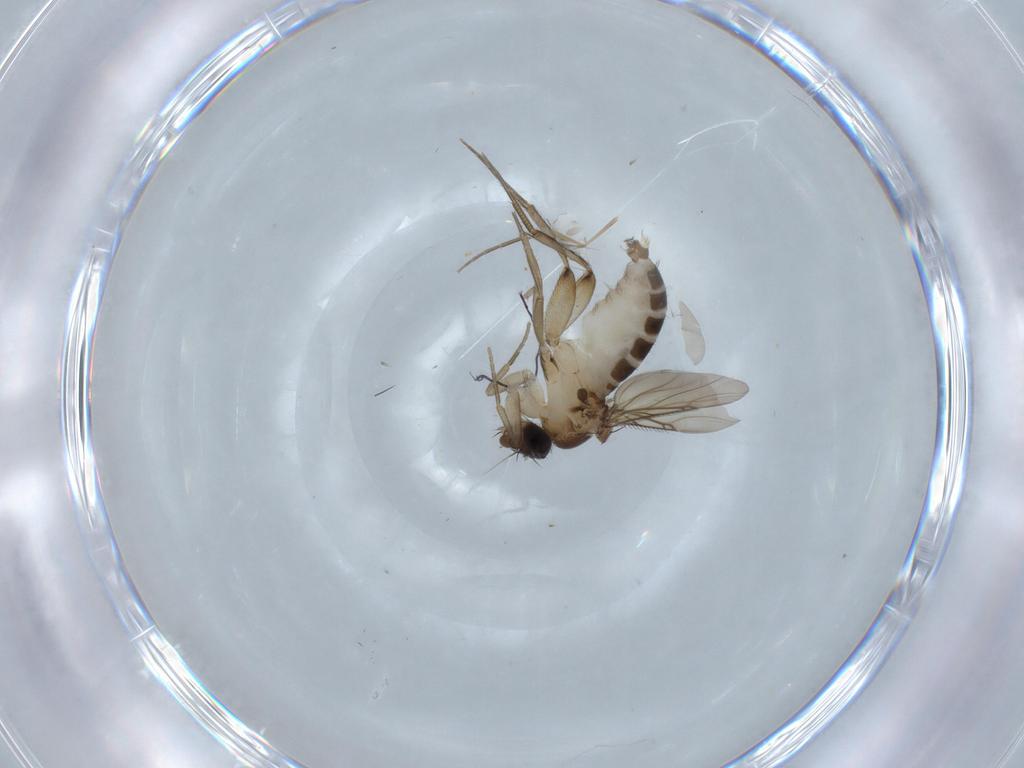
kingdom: Animalia
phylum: Arthropoda
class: Insecta
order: Diptera
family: Phoridae
